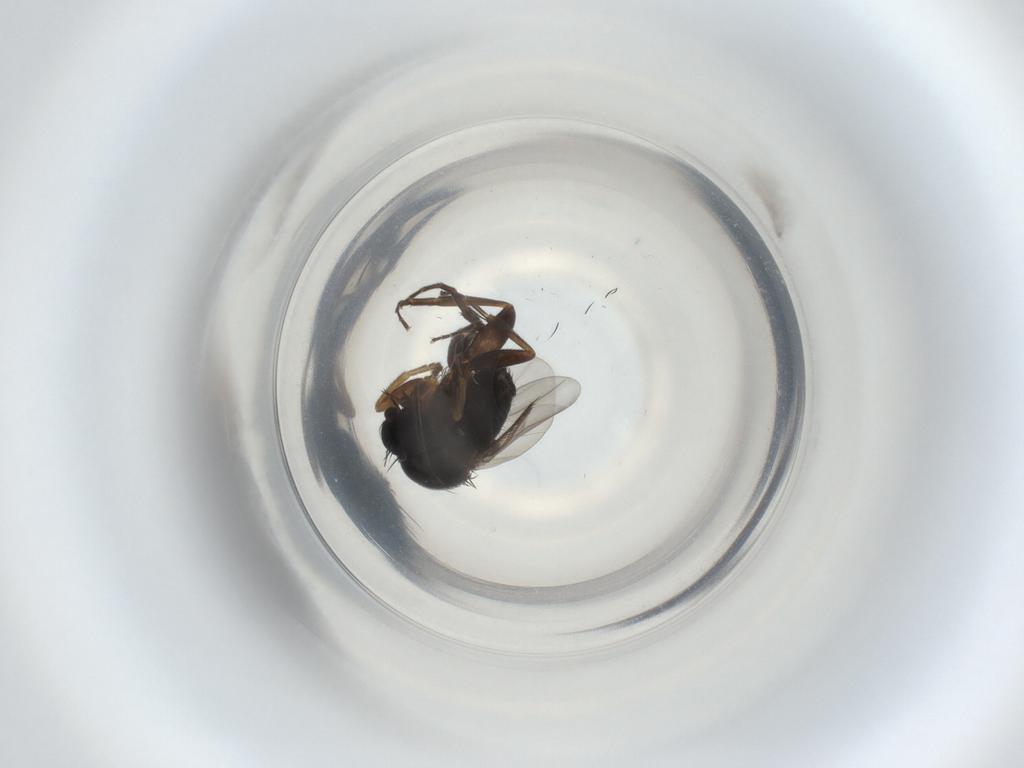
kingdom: Animalia
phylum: Arthropoda
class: Insecta
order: Diptera
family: Phoridae
